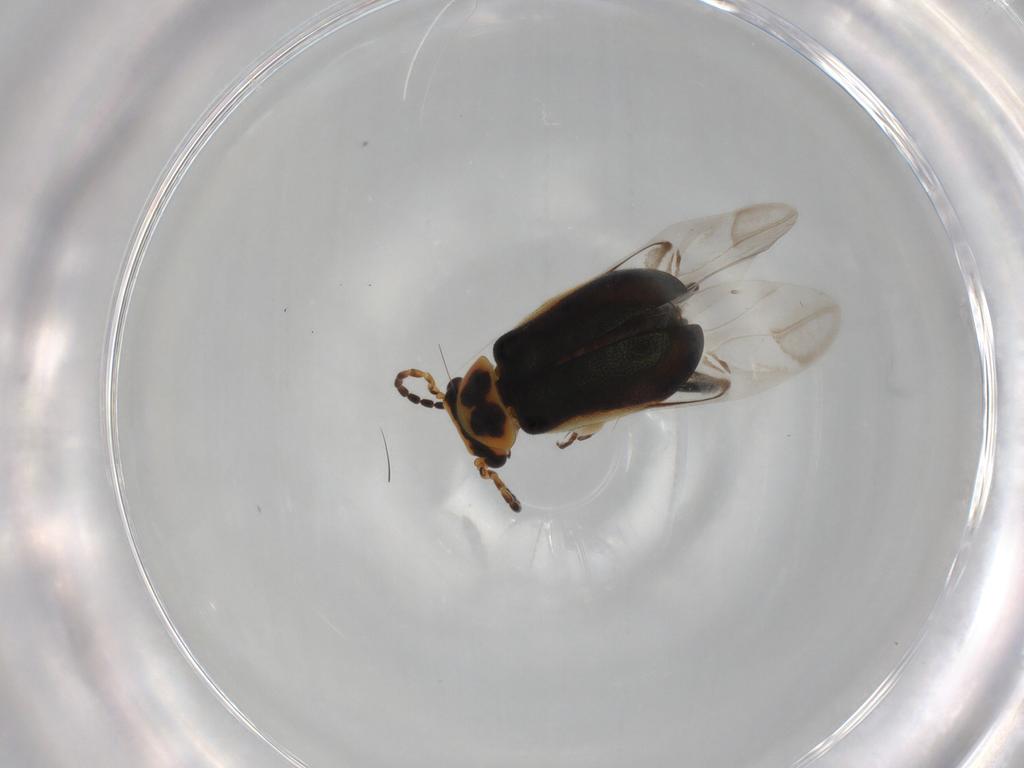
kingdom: Animalia
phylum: Arthropoda
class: Insecta
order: Coleoptera
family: Melyridae
